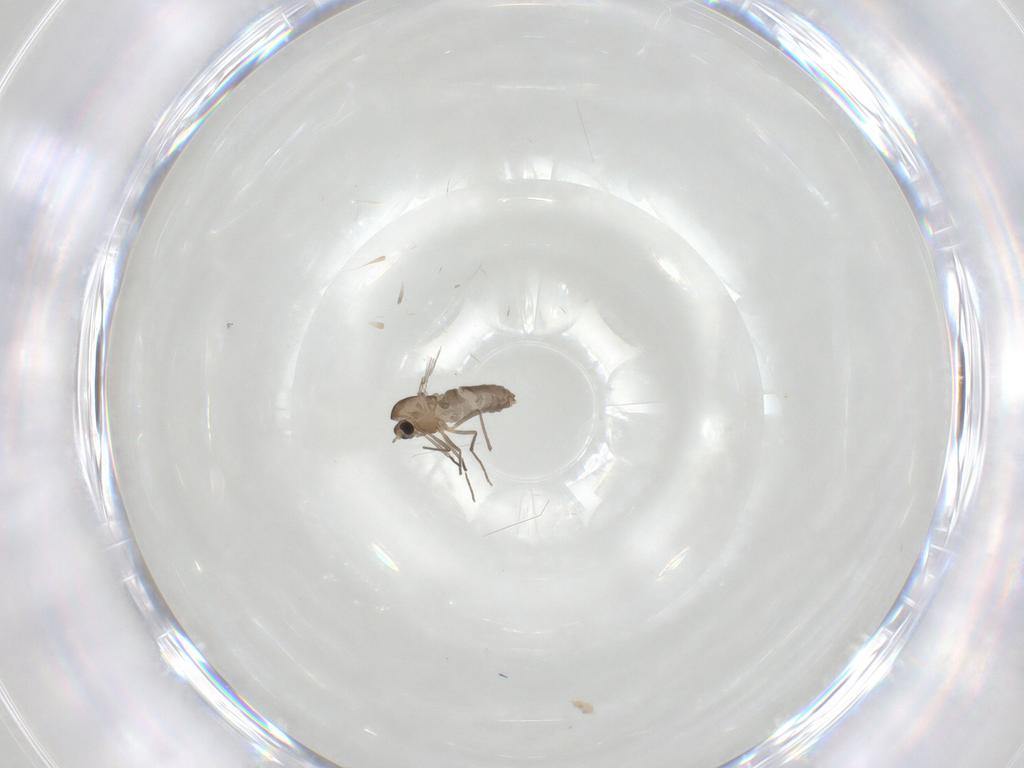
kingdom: Animalia
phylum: Arthropoda
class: Insecta
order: Diptera
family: Chironomidae
